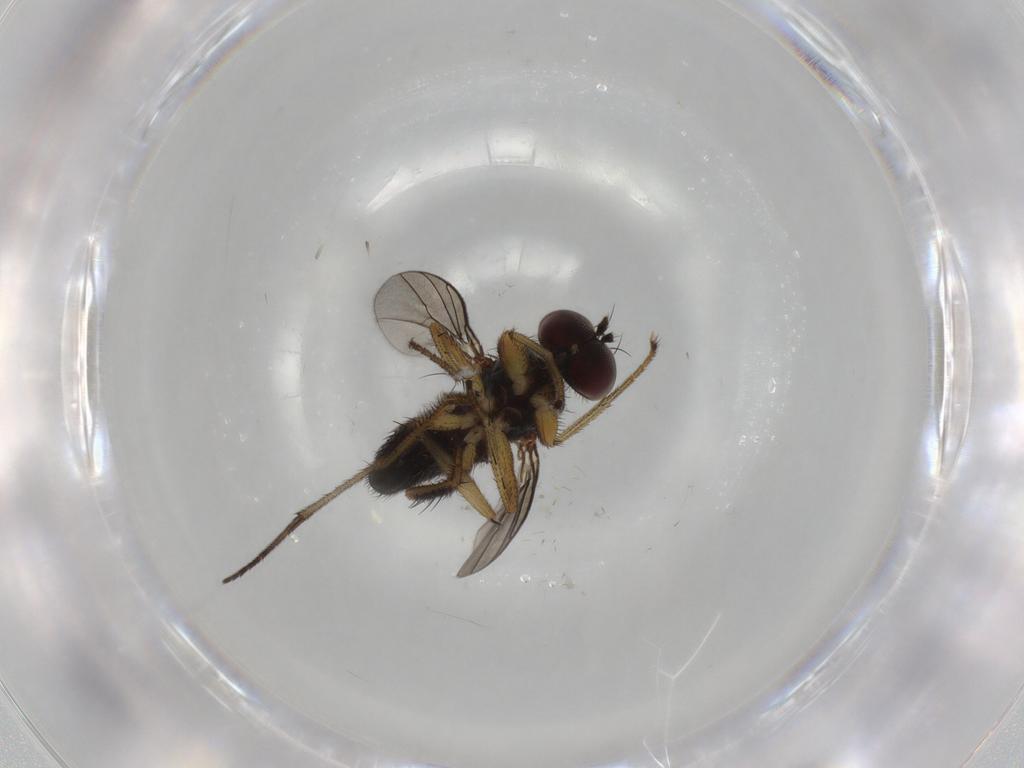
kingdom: Animalia
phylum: Arthropoda
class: Insecta
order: Diptera
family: Dolichopodidae
